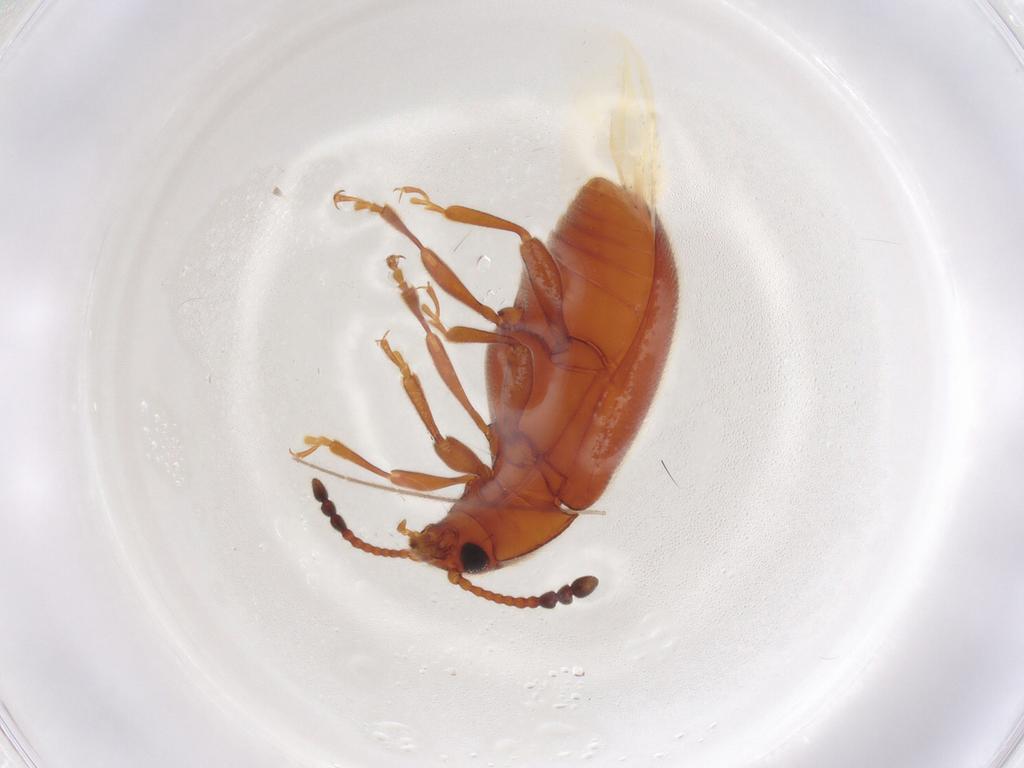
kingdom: Animalia
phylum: Arthropoda
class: Insecta
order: Coleoptera
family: Endomychidae
